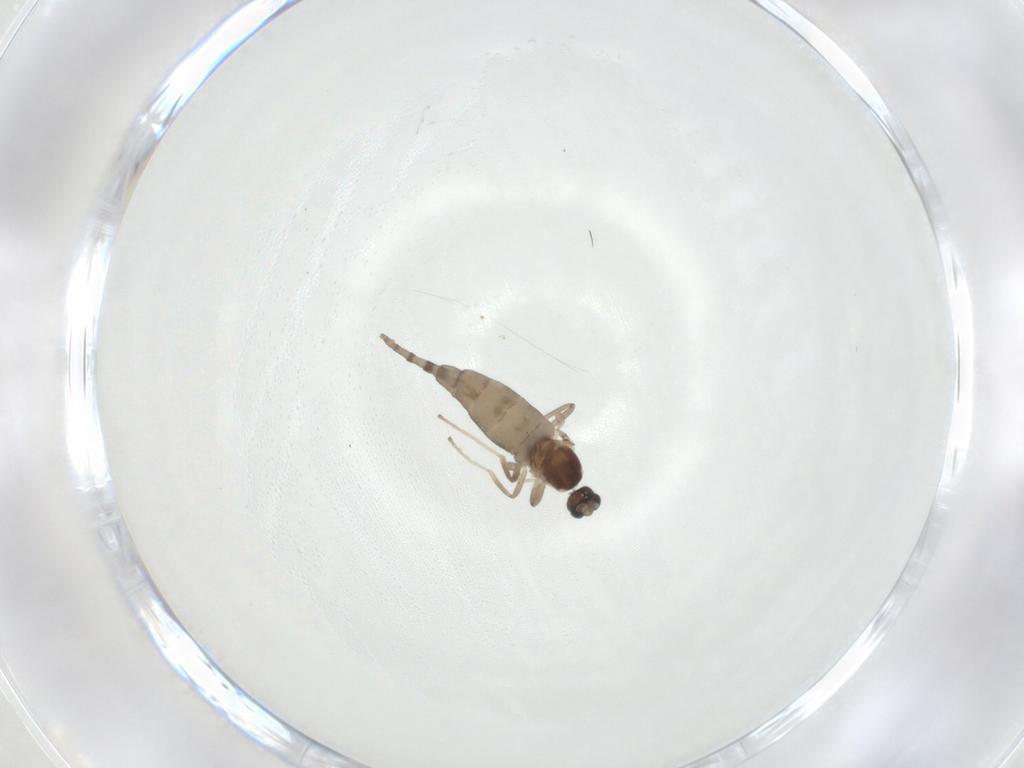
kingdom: Animalia
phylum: Arthropoda
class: Insecta
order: Diptera
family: Cecidomyiidae
